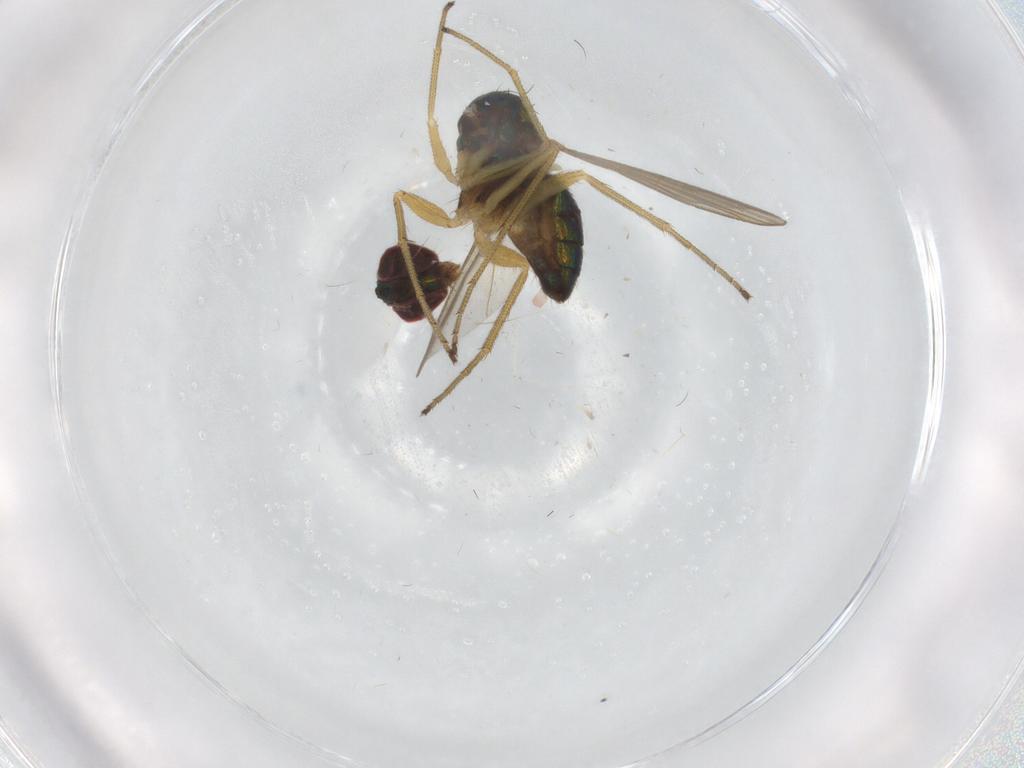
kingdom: Animalia
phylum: Arthropoda
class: Insecta
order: Diptera
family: Dolichopodidae
